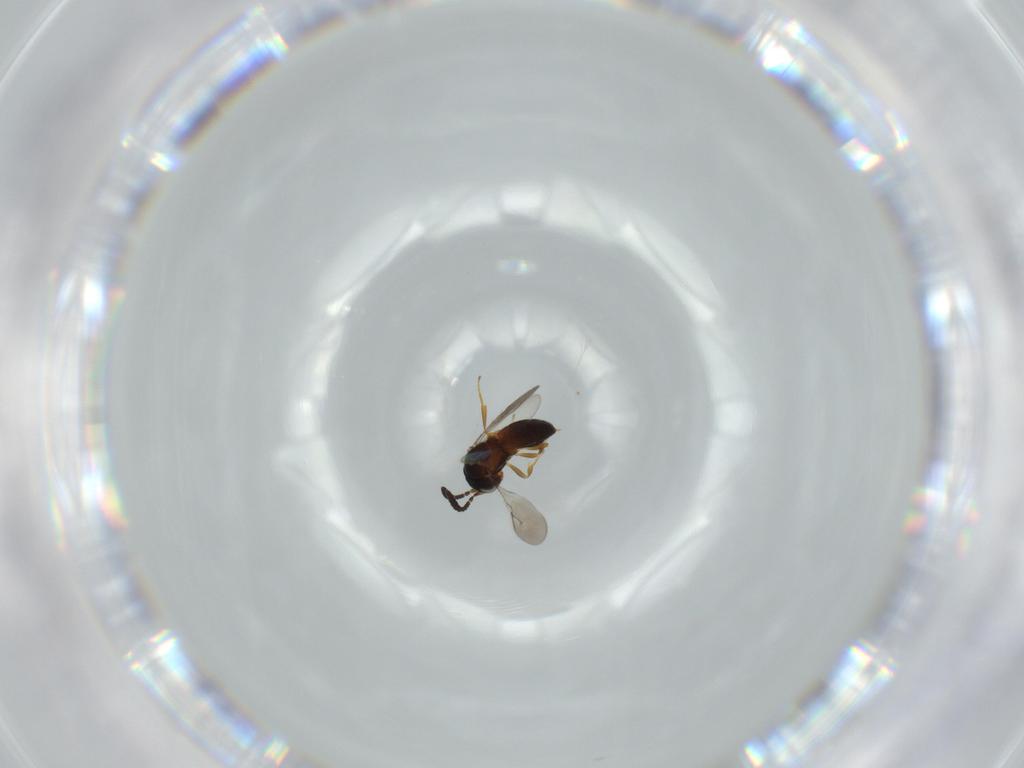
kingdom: Animalia
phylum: Arthropoda
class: Insecta
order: Hymenoptera
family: Scelionidae
